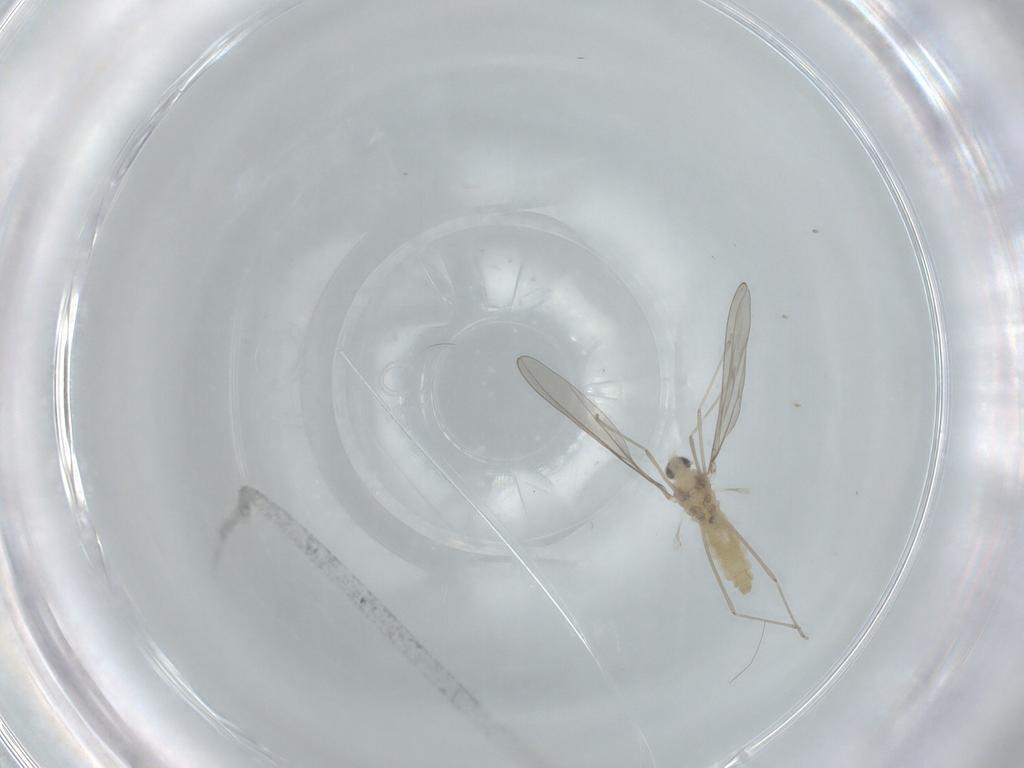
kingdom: Animalia
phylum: Arthropoda
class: Insecta
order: Diptera
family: Cecidomyiidae
